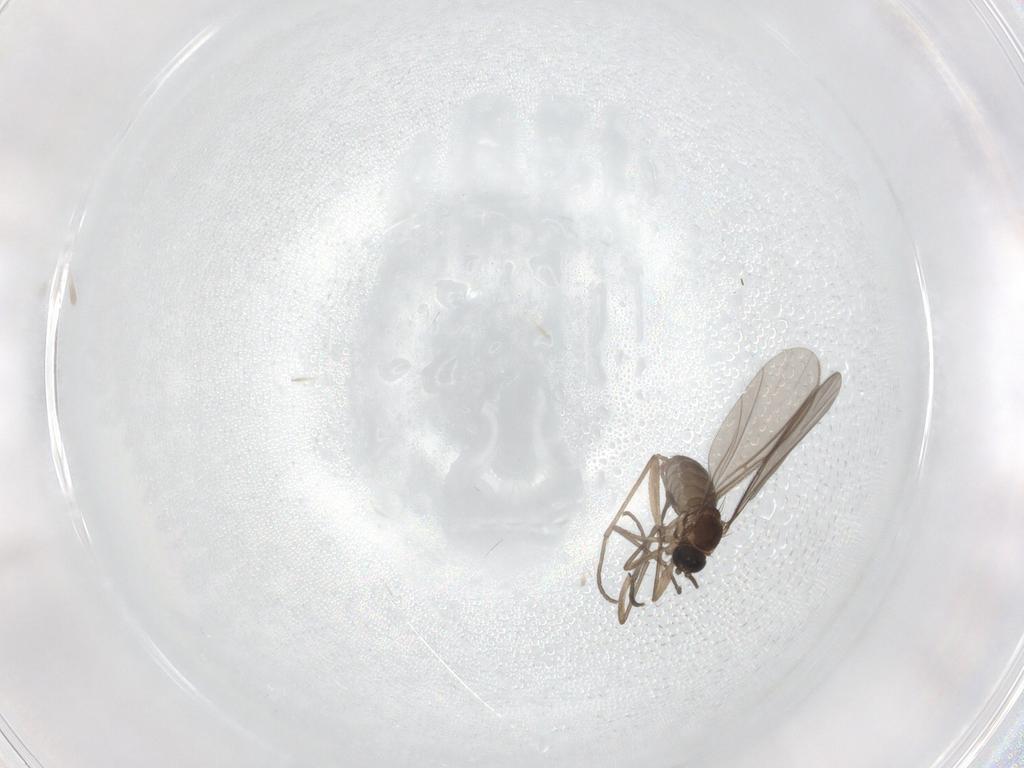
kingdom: Animalia
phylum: Arthropoda
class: Insecta
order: Diptera
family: Sciaridae
